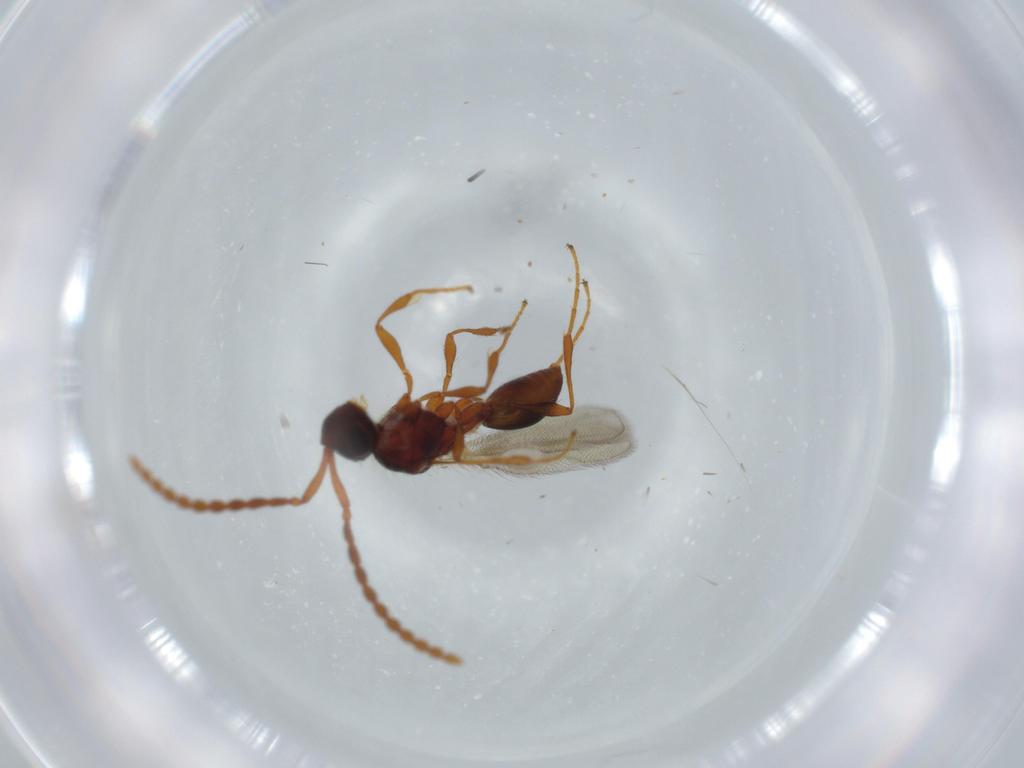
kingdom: Animalia
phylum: Arthropoda
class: Insecta
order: Hymenoptera
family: Diapriidae
